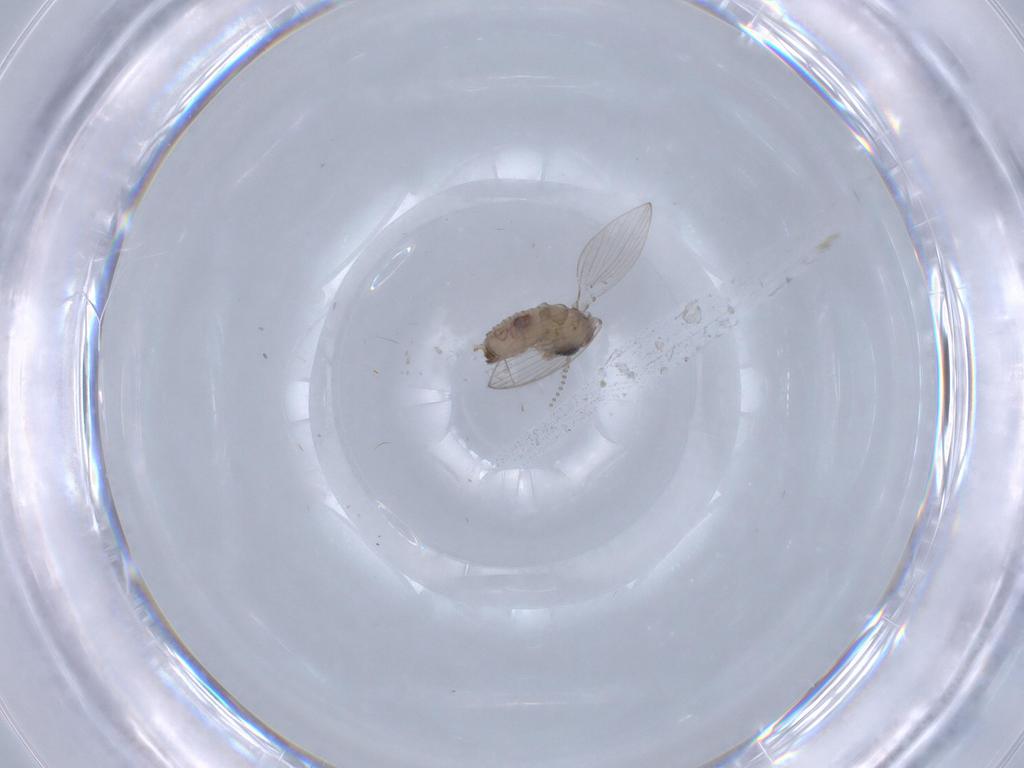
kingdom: Animalia
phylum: Arthropoda
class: Insecta
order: Diptera
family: Psychodidae
